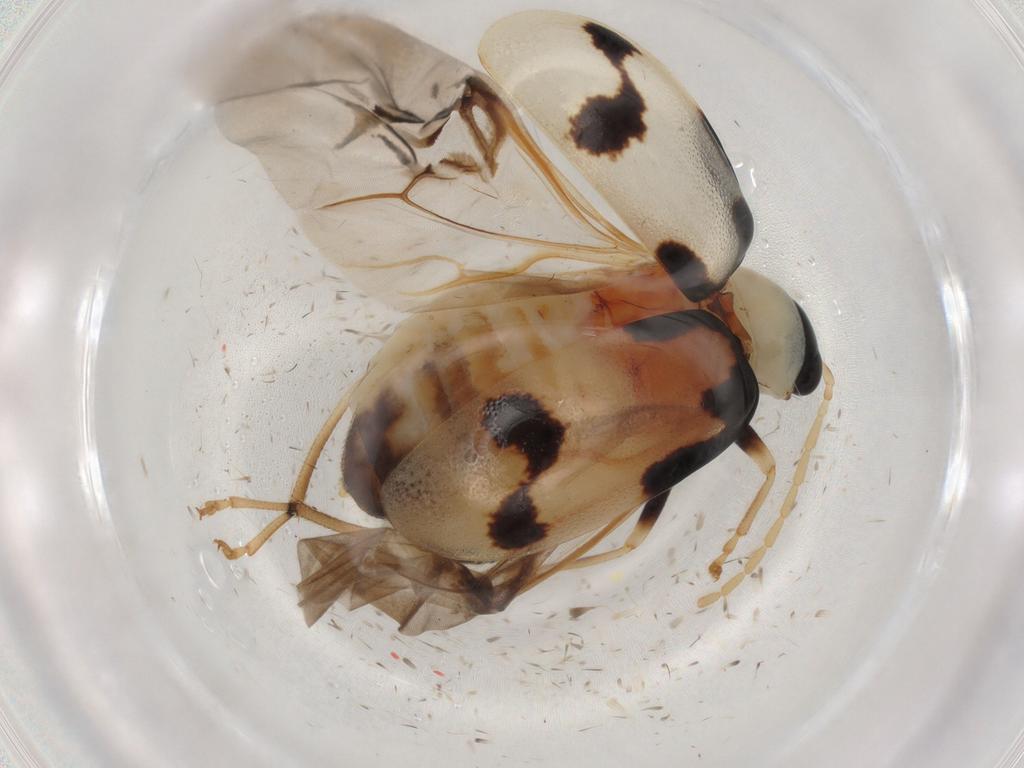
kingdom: Animalia
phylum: Arthropoda
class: Insecta
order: Coleoptera
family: Chrysomelidae
